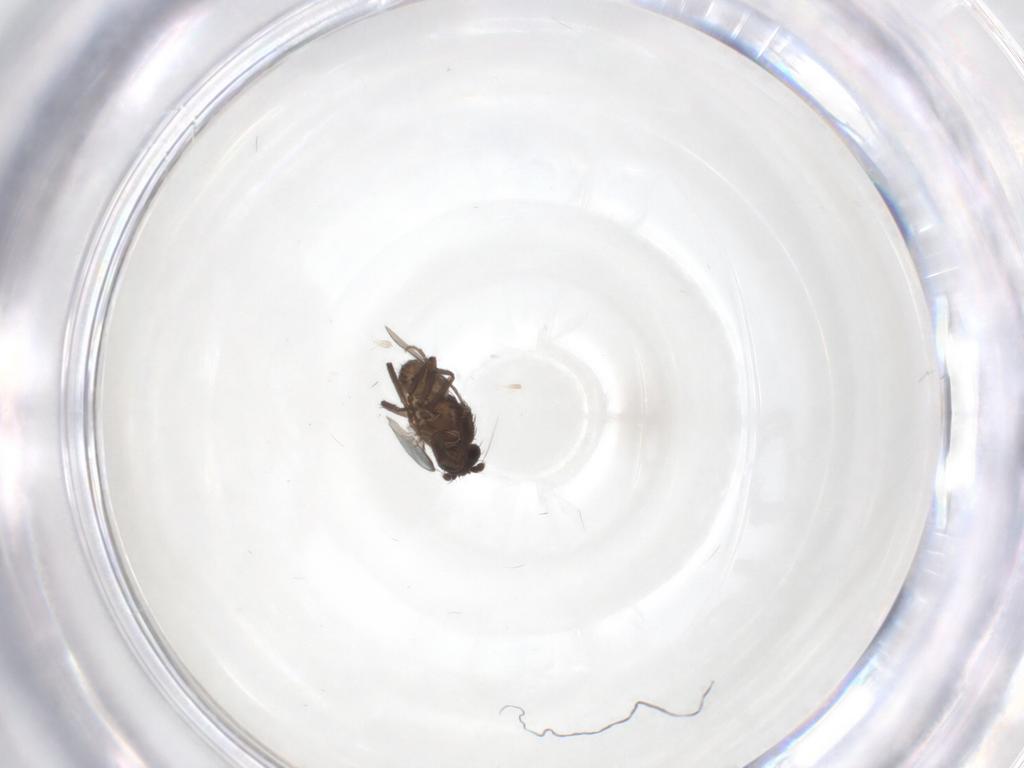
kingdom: Animalia
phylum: Arthropoda
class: Insecta
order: Diptera
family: Sphaeroceridae
